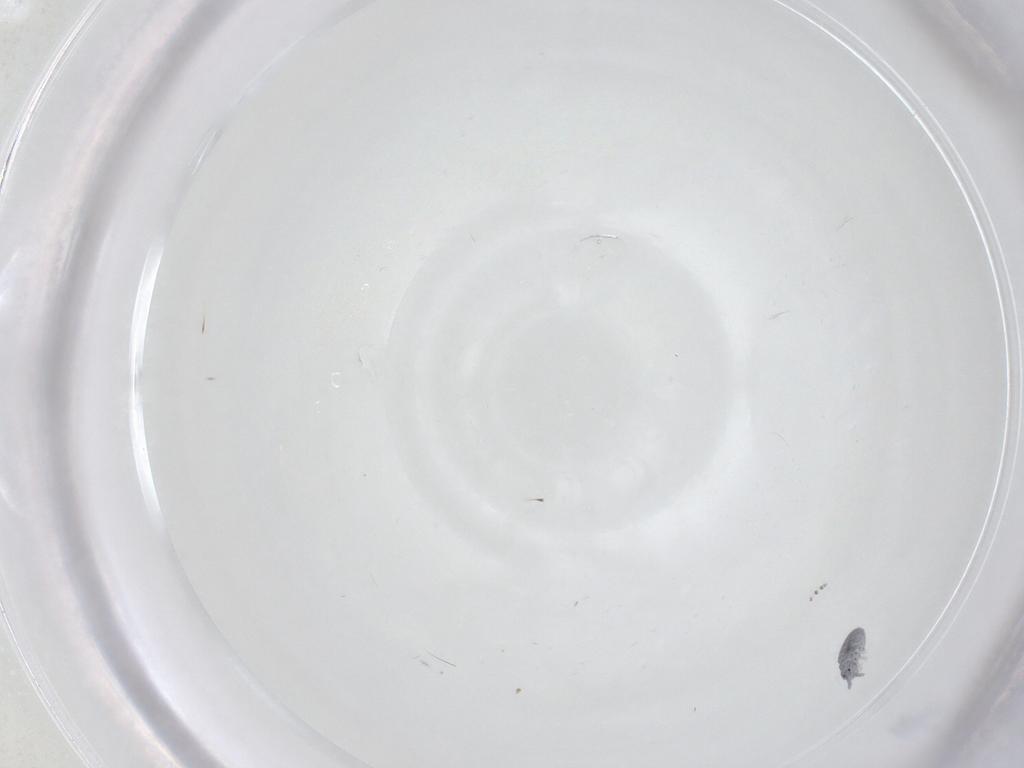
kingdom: Animalia
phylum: Arthropoda
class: Collembola
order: Poduromorpha
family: Hypogastruridae
